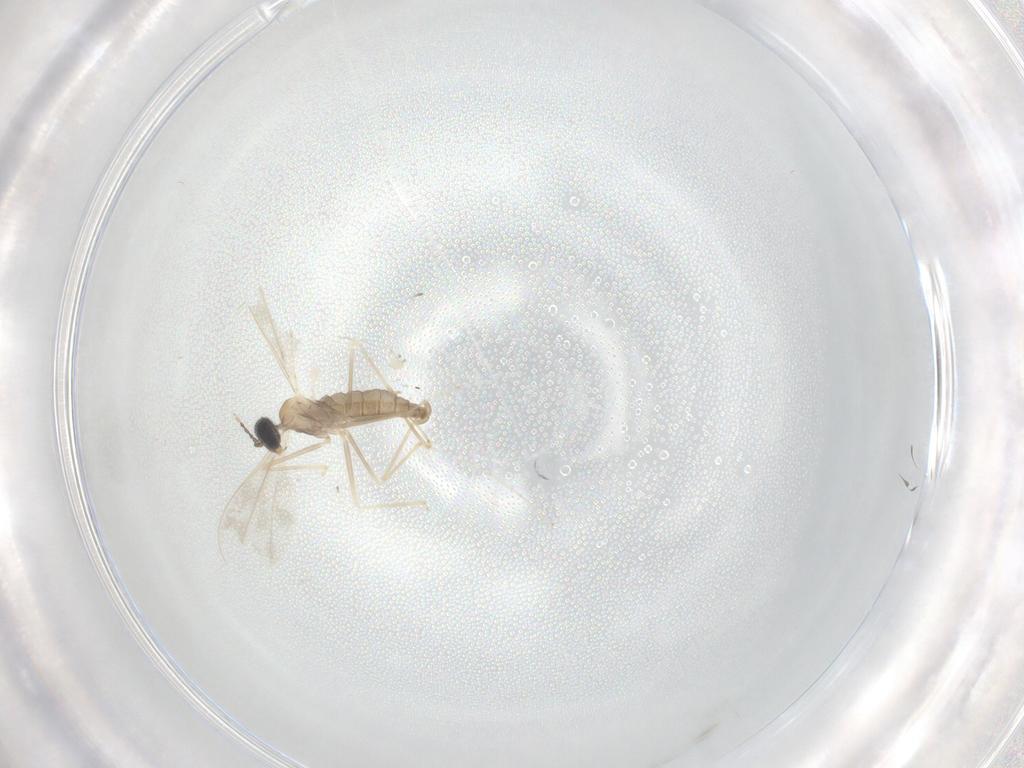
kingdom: Animalia
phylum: Arthropoda
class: Insecta
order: Diptera
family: Cecidomyiidae
